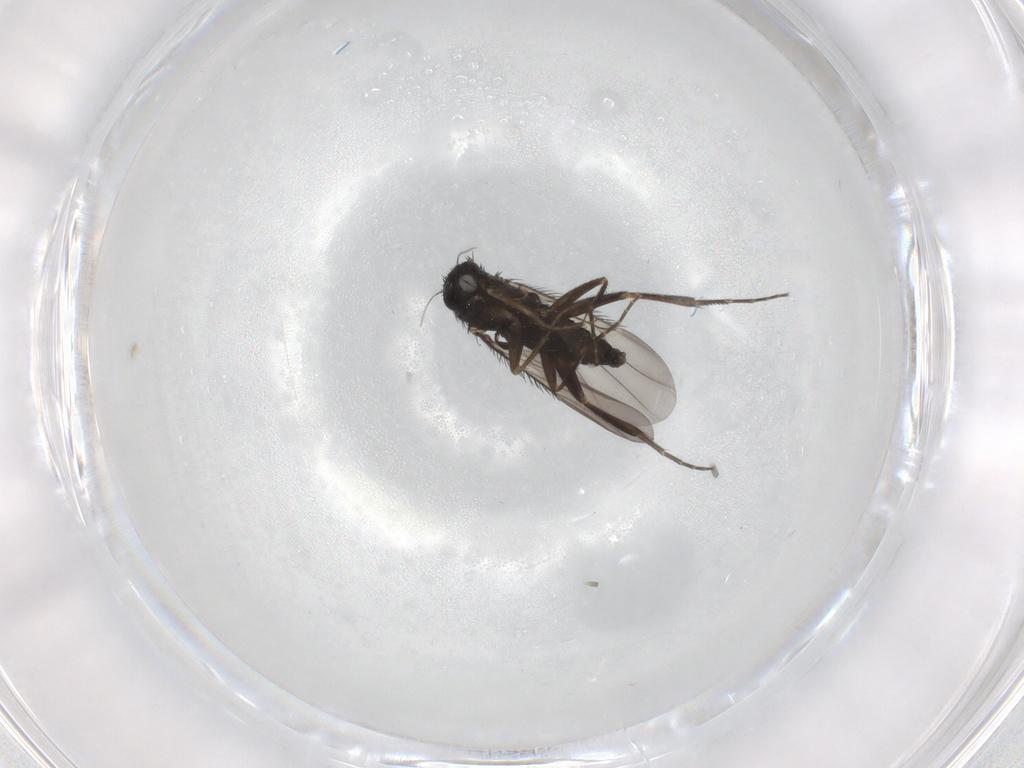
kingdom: Animalia
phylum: Arthropoda
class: Insecta
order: Diptera
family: Phoridae
